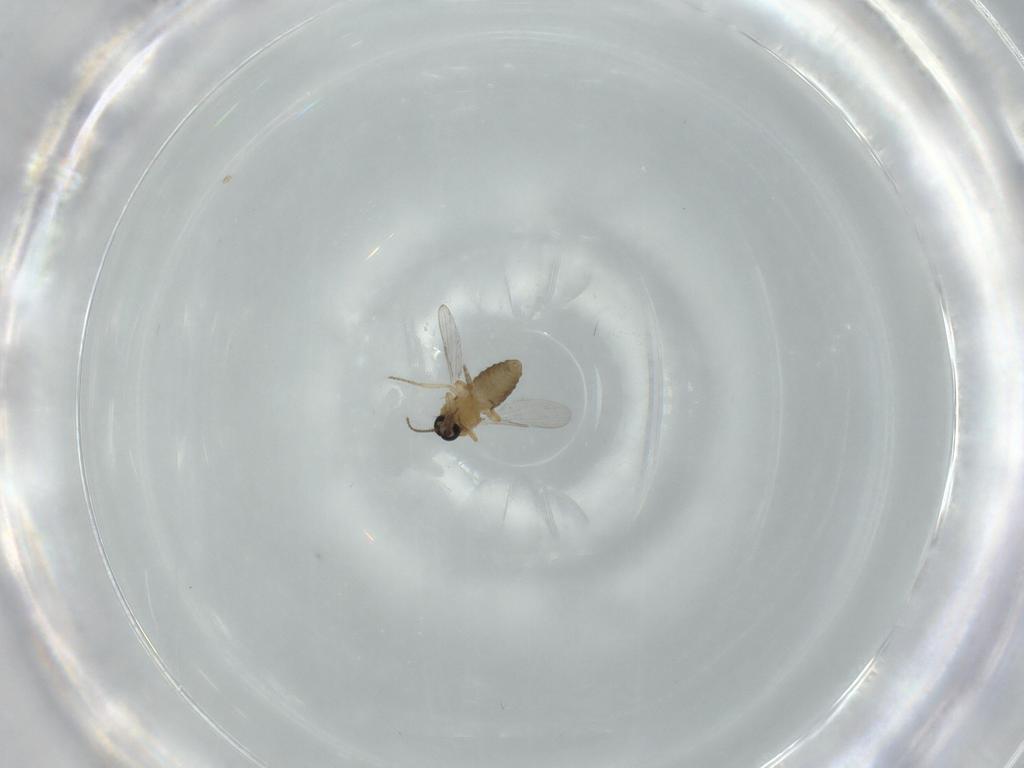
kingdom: Animalia
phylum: Arthropoda
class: Insecta
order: Diptera
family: Ceratopogonidae
